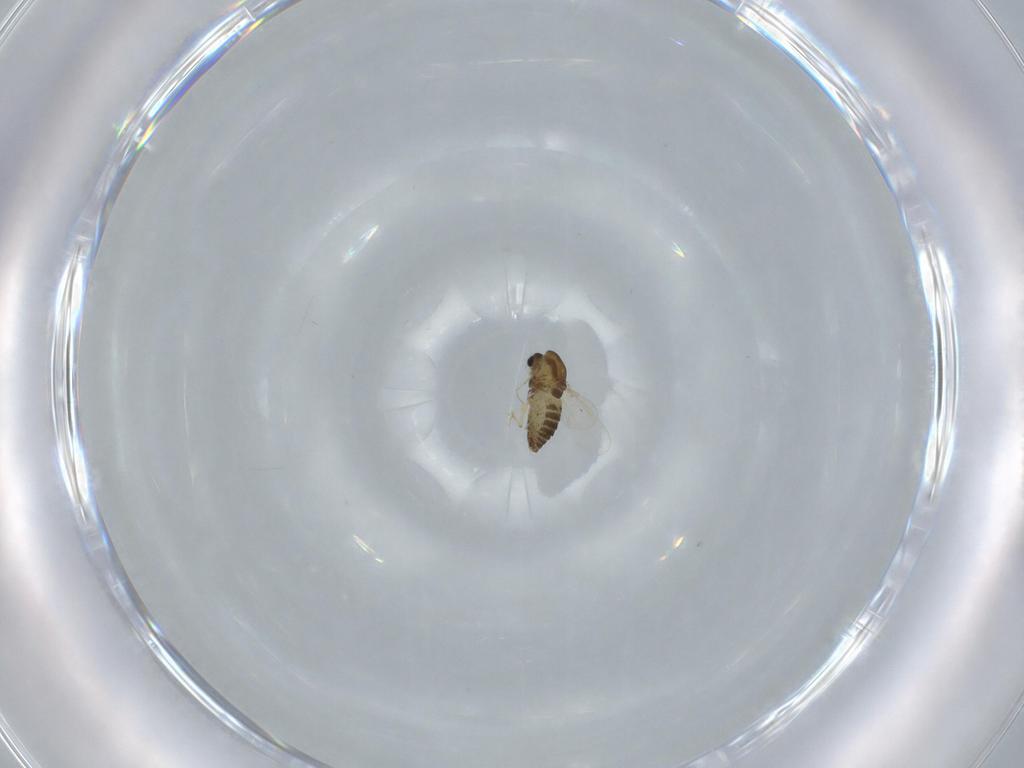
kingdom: Animalia
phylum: Arthropoda
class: Insecta
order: Diptera
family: Chironomidae
